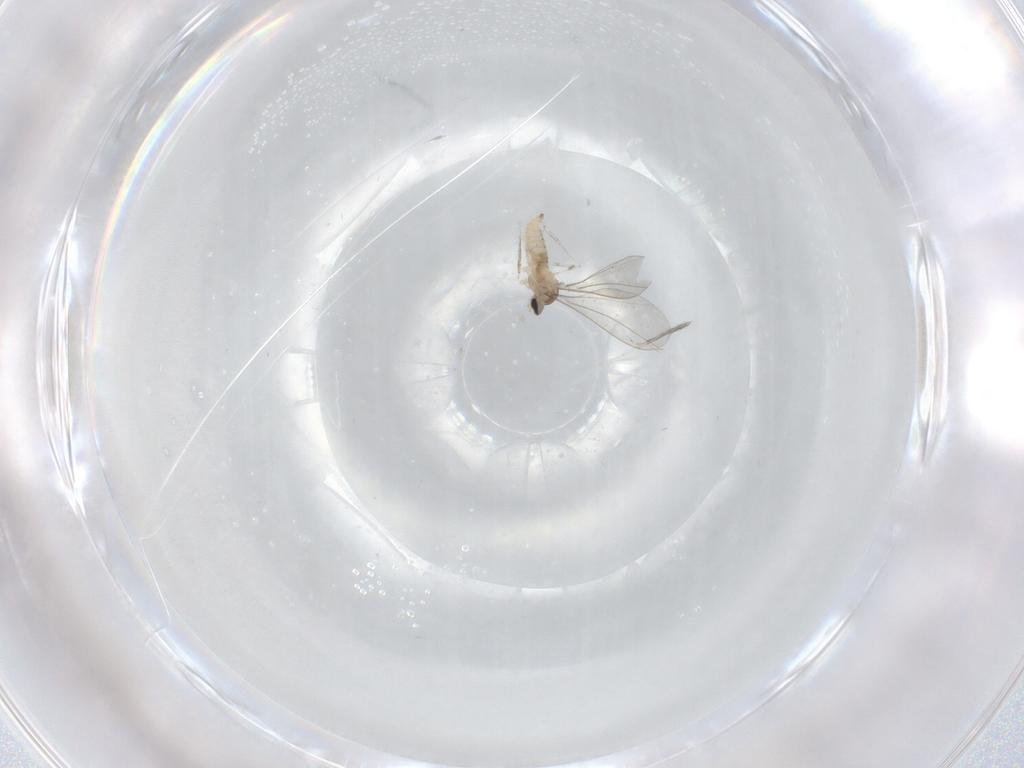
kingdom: Animalia
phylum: Arthropoda
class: Insecta
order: Diptera
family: Cecidomyiidae
